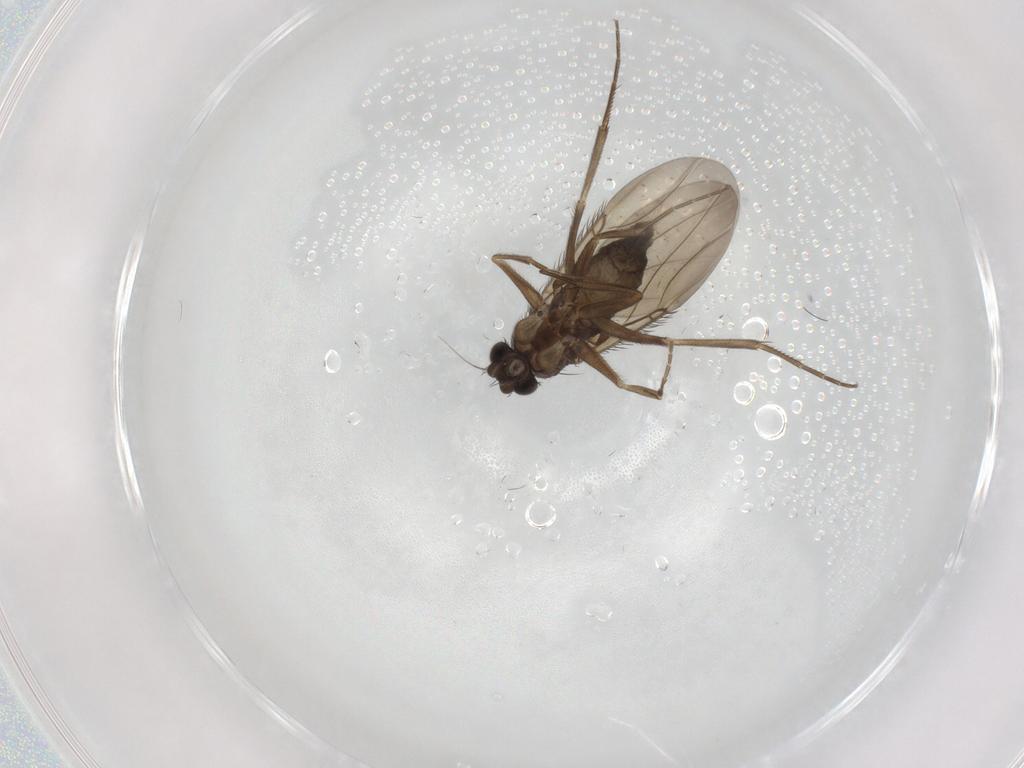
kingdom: Animalia
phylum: Arthropoda
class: Insecta
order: Diptera
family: Phoridae
